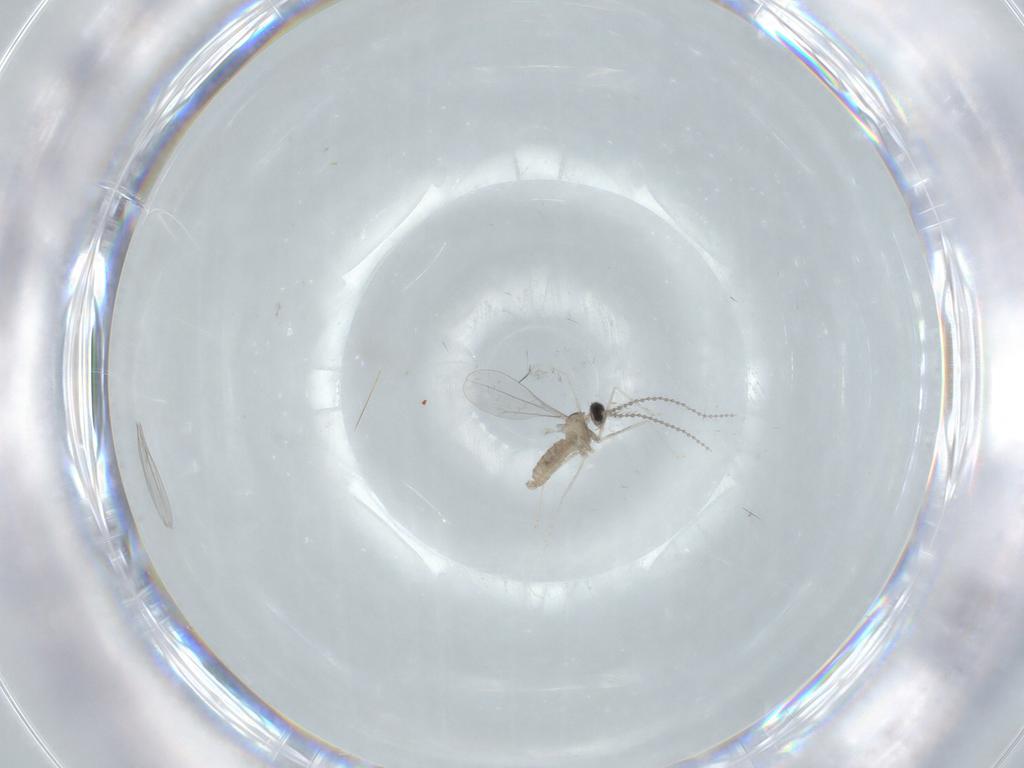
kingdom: Animalia
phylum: Arthropoda
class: Insecta
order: Diptera
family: Cecidomyiidae
